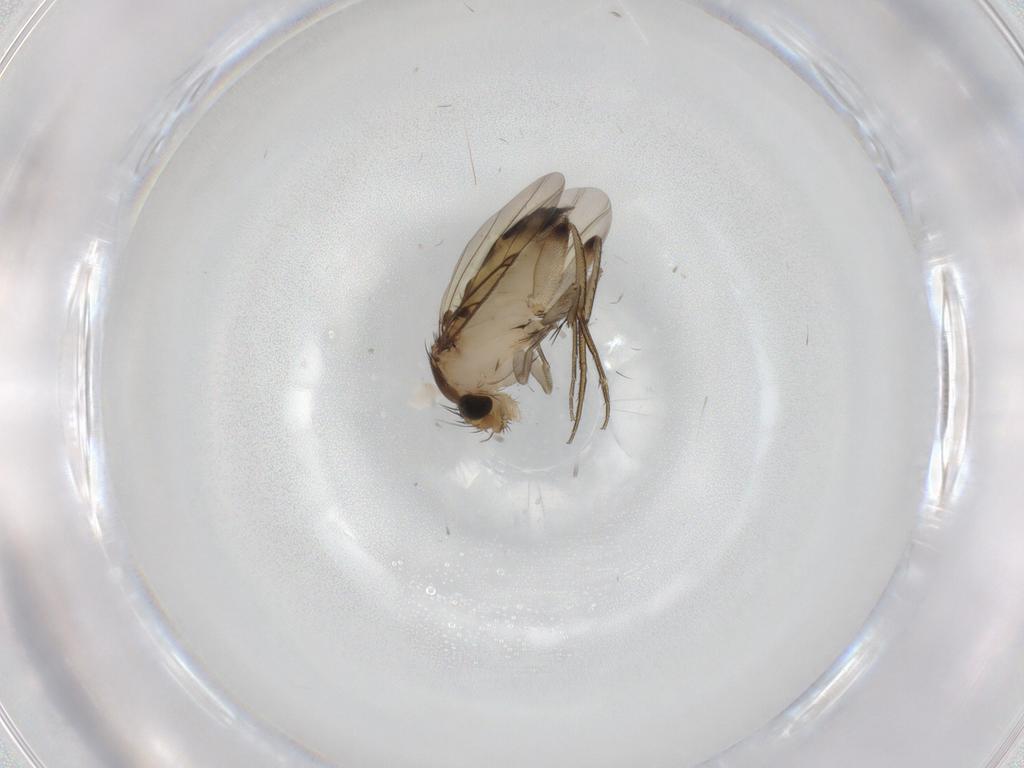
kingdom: Animalia
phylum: Arthropoda
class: Insecta
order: Diptera
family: Phoridae
